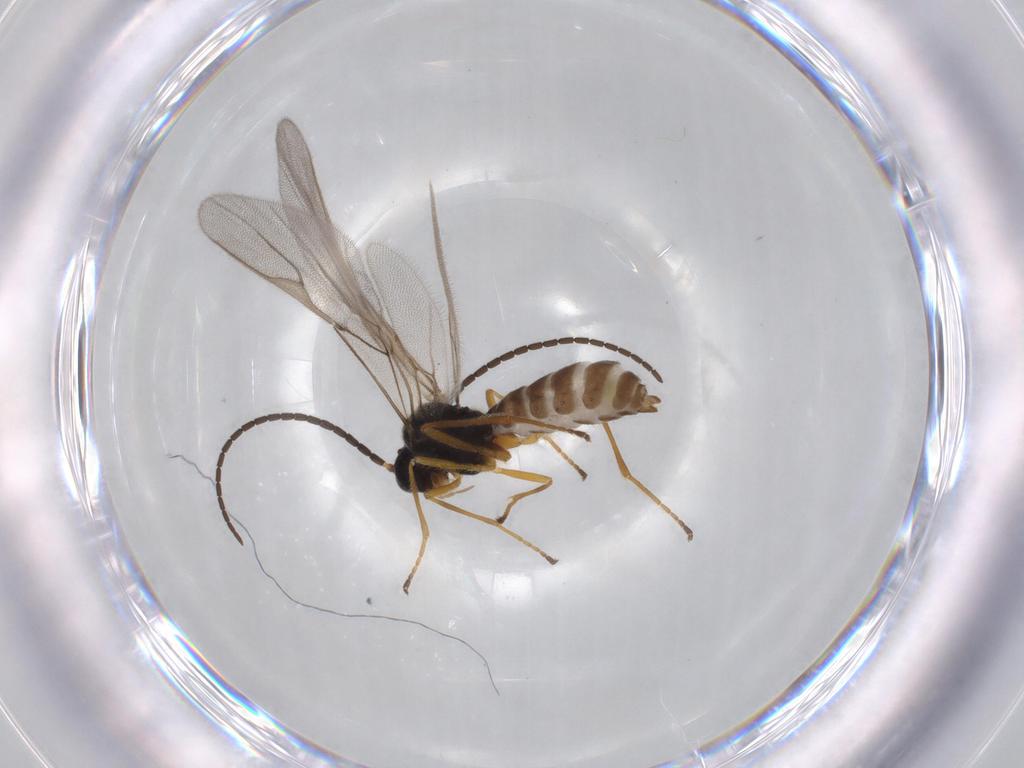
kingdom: Animalia
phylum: Arthropoda
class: Insecta
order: Hymenoptera
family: Braconidae
